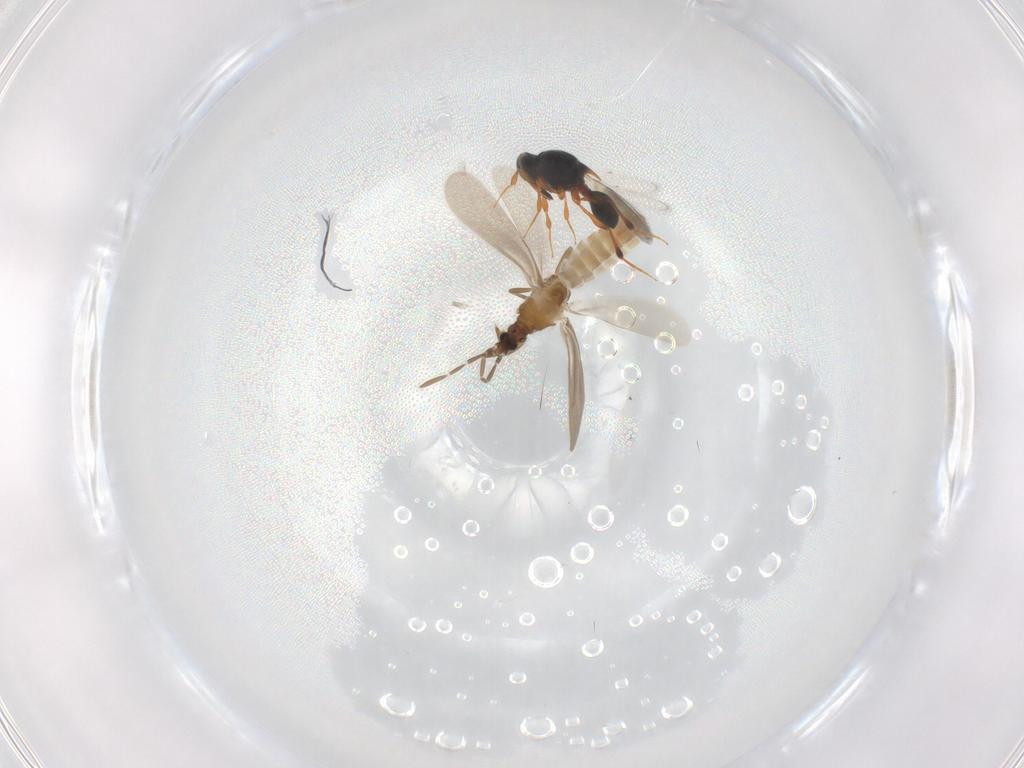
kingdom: Animalia
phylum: Arthropoda
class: Insecta
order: Hymenoptera
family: Platygastridae
